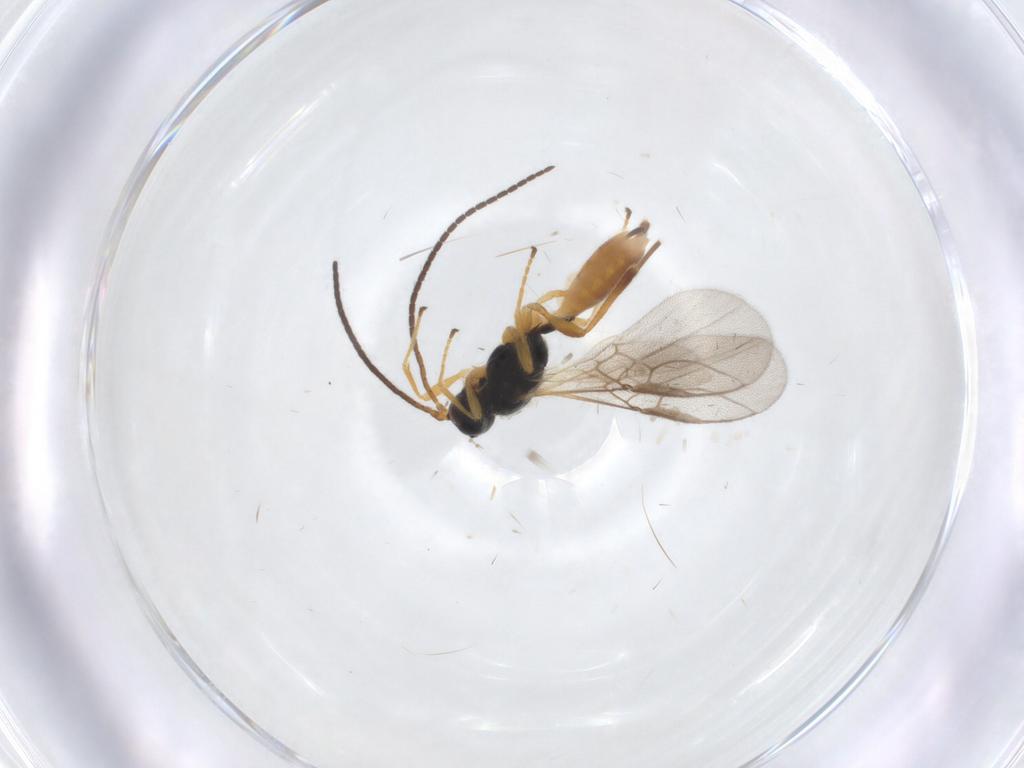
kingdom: Animalia
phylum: Arthropoda
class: Insecta
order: Hymenoptera
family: Braconidae
